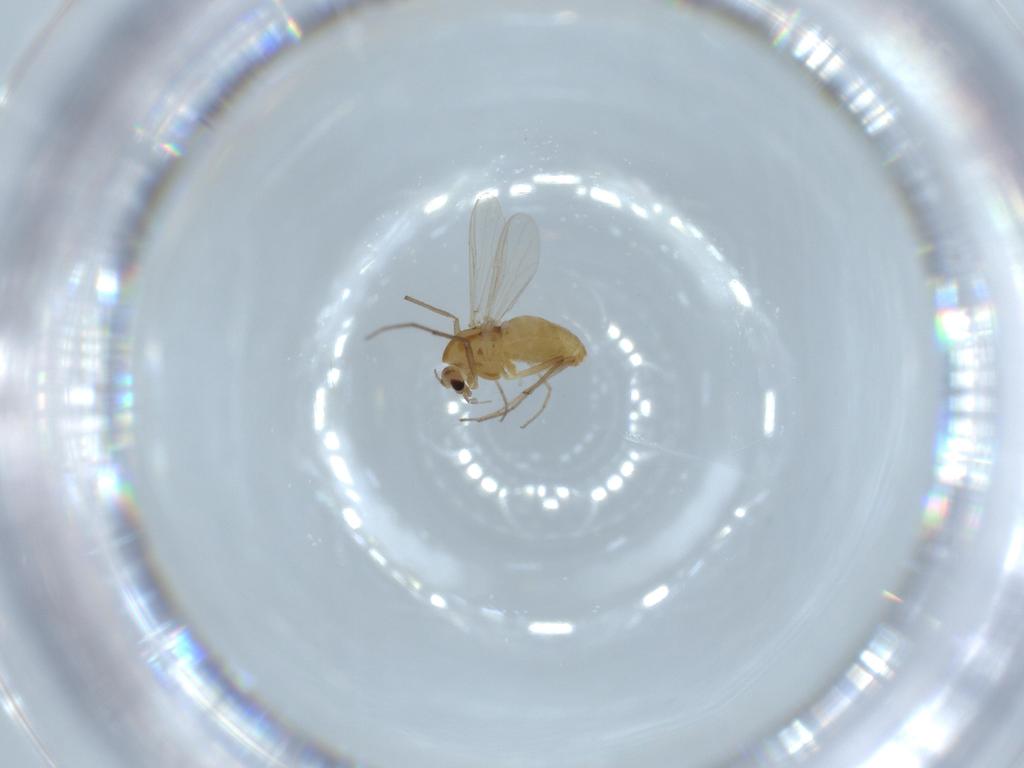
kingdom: Animalia
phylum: Arthropoda
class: Insecta
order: Diptera
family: Chironomidae
